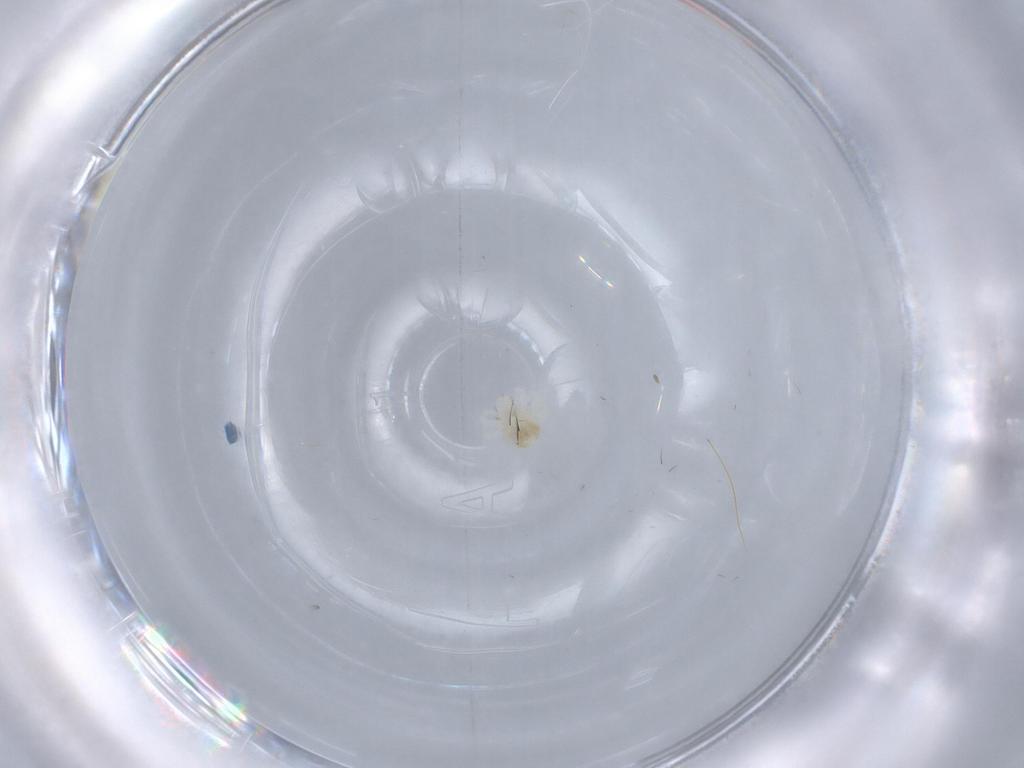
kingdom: Animalia
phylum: Arthropoda
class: Arachnida
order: Trombidiformes
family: Anystidae
